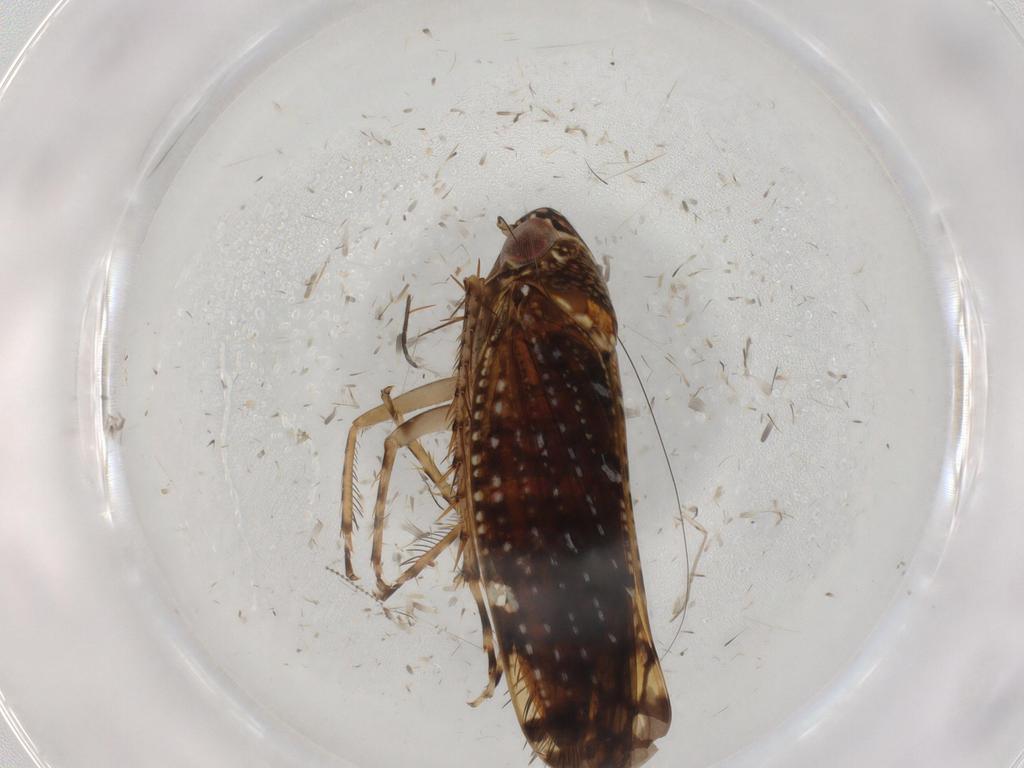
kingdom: Animalia
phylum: Arthropoda
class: Insecta
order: Hemiptera
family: Cicadellidae
